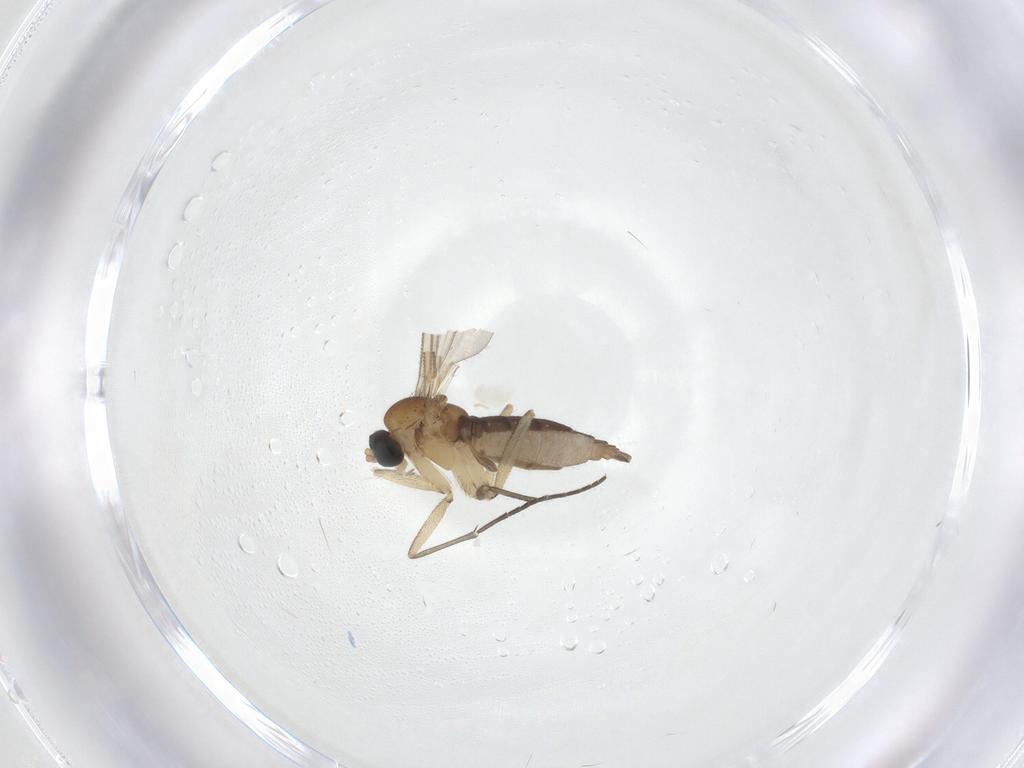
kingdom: Animalia
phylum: Arthropoda
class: Insecta
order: Diptera
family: Sciaridae
